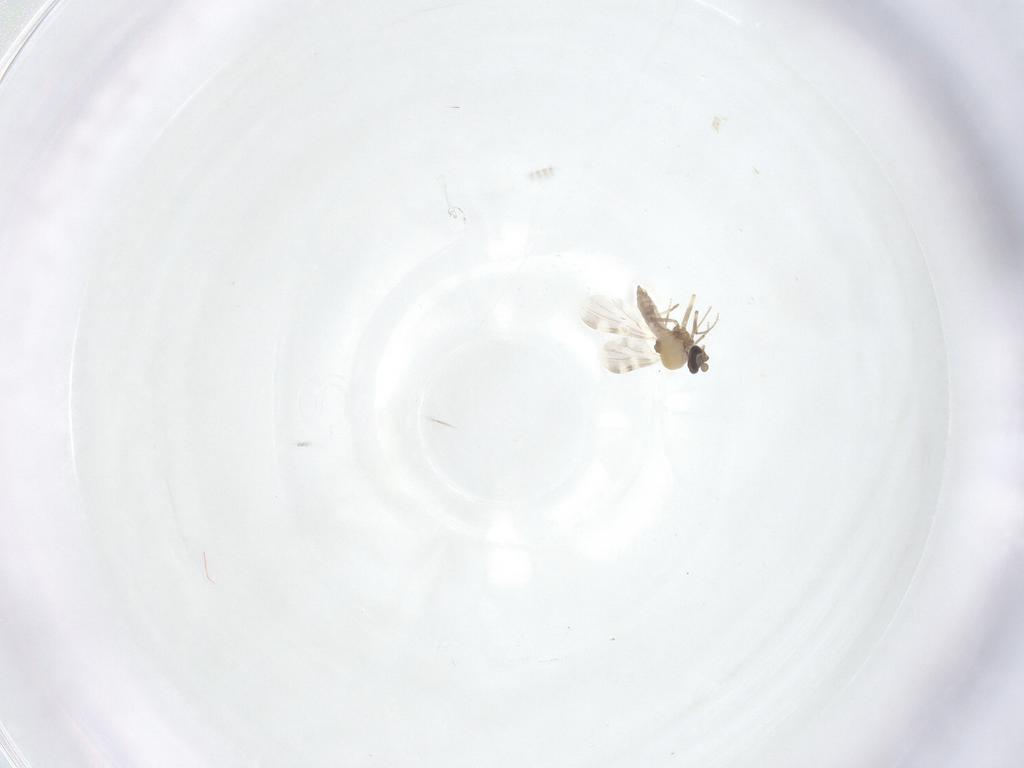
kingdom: Animalia
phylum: Arthropoda
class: Insecta
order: Diptera
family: Ceratopogonidae
